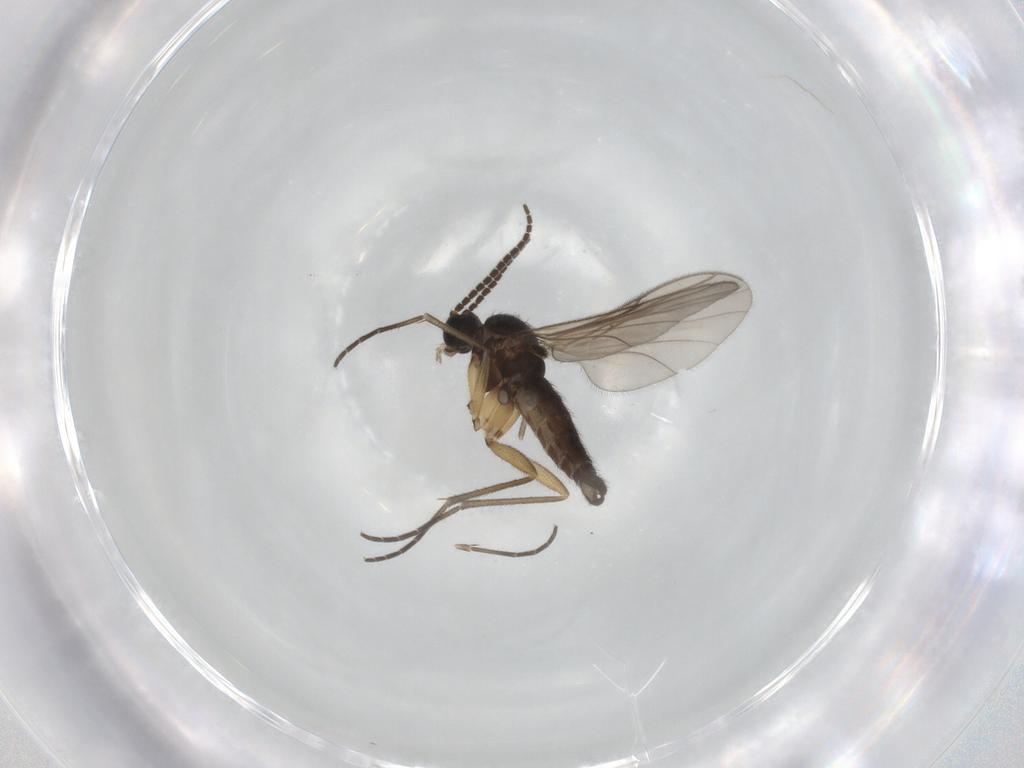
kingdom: Animalia
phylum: Arthropoda
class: Insecta
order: Diptera
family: Sciaridae
